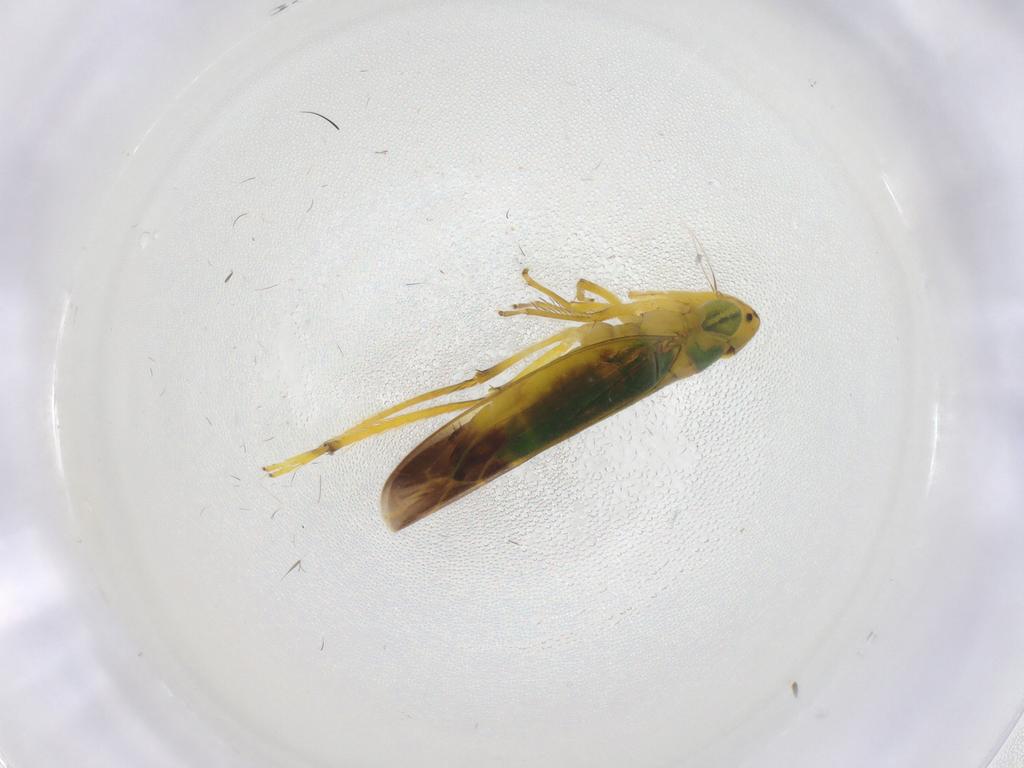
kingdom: Animalia
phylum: Arthropoda
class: Insecta
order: Hemiptera
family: Cicadellidae
